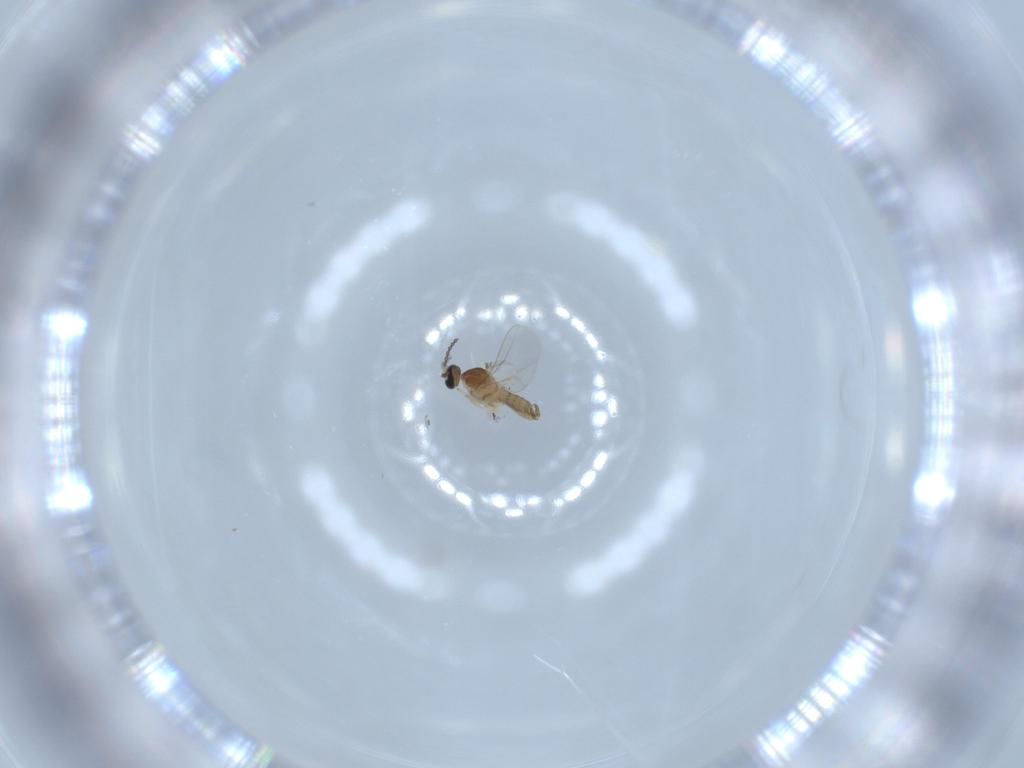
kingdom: Animalia
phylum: Arthropoda
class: Insecta
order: Diptera
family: Cecidomyiidae
